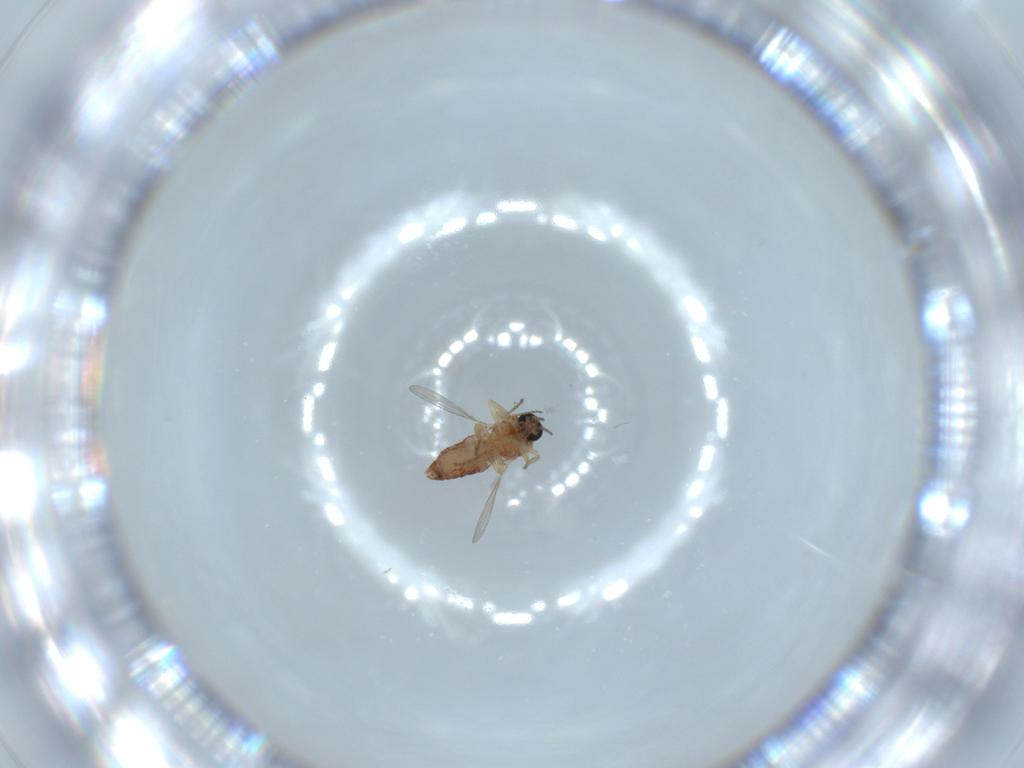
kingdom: Animalia
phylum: Arthropoda
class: Insecta
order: Diptera
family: Ceratopogonidae
